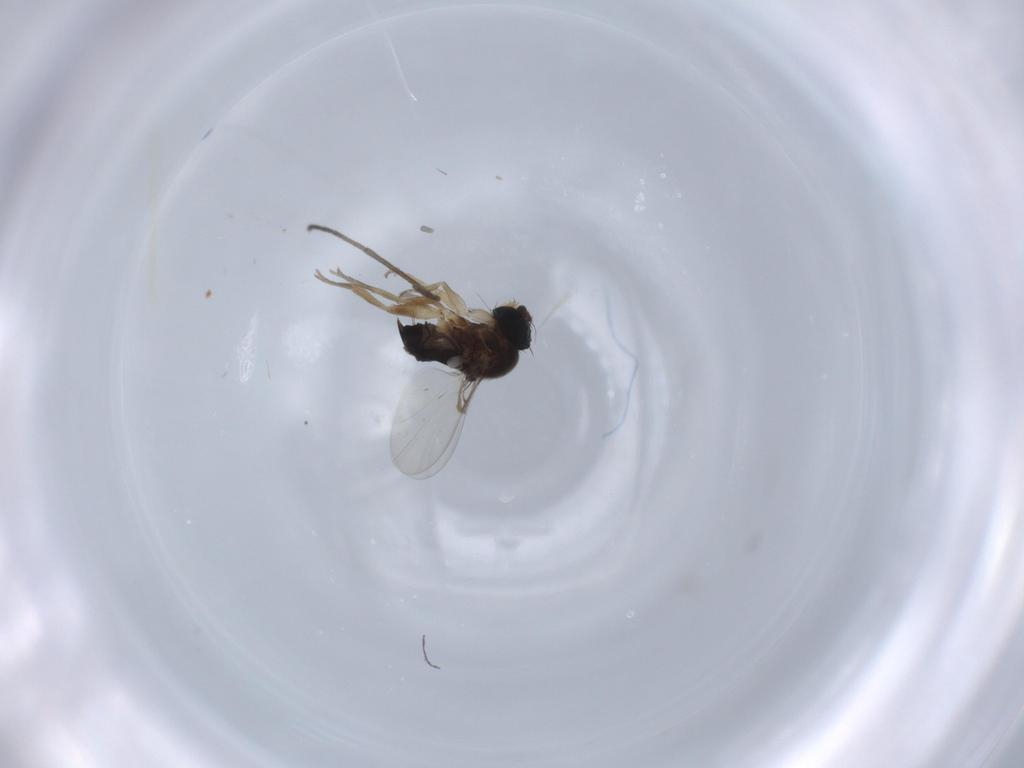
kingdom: Animalia
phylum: Arthropoda
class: Insecta
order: Diptera
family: Phoridae
